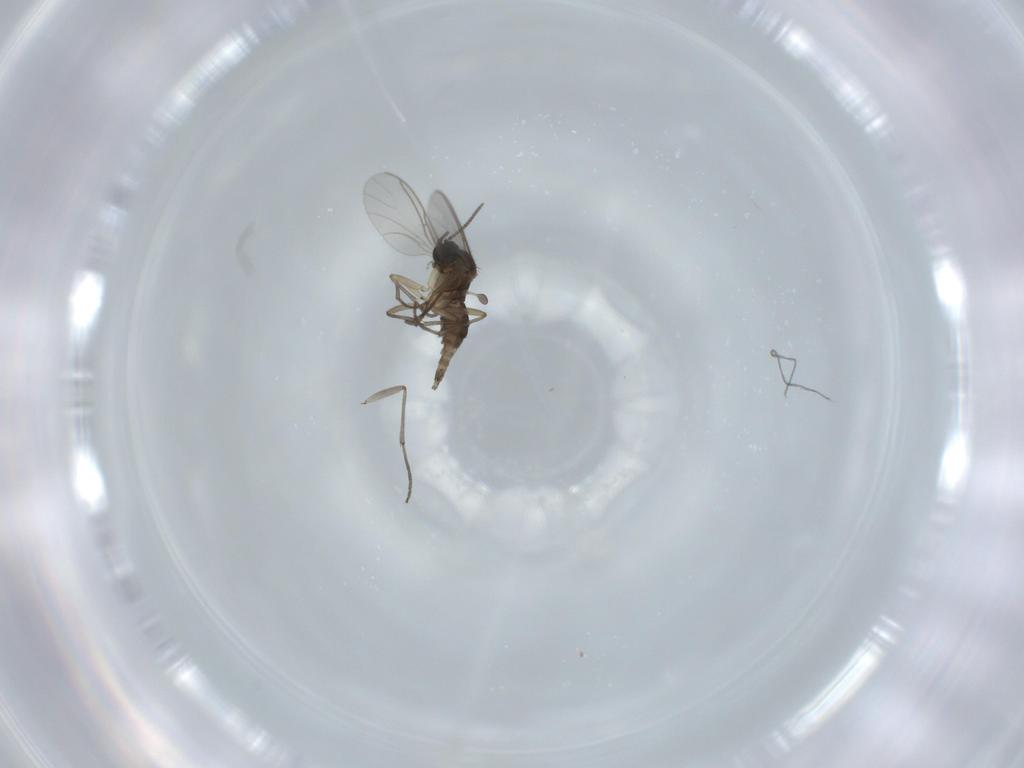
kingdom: Animalia
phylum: Arthropoda
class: Insecta
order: Diptera
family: Sciaridae
